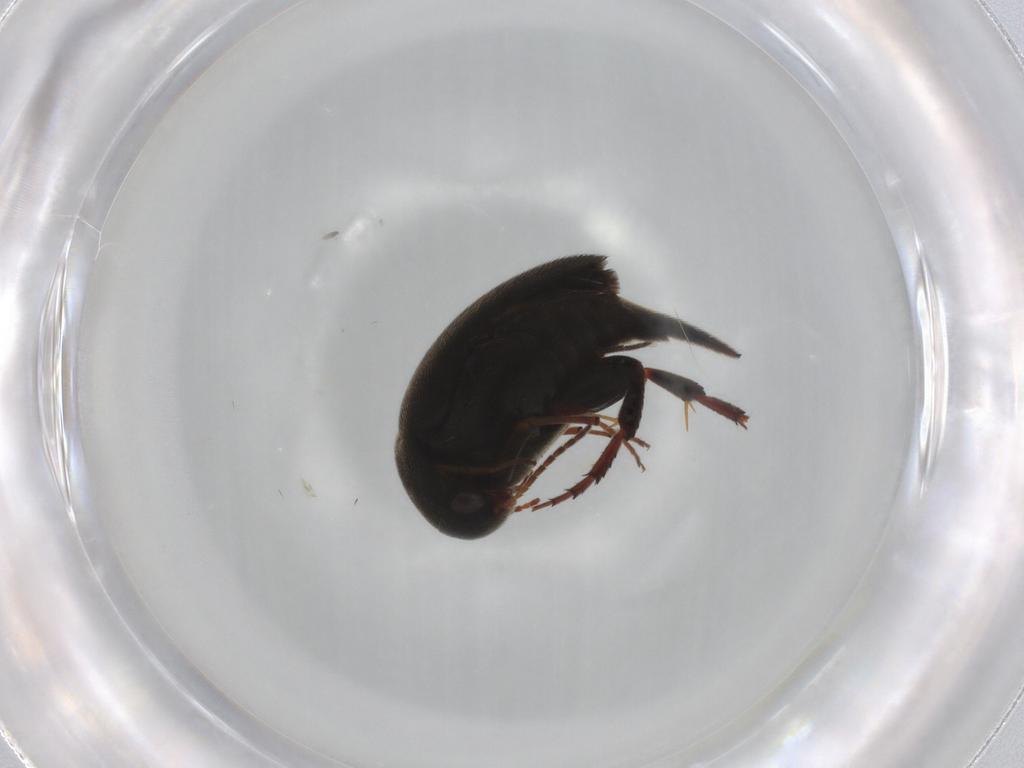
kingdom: Animalia
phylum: Arthropoda
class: Insecta
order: Coleoptera
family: Mordellidae
